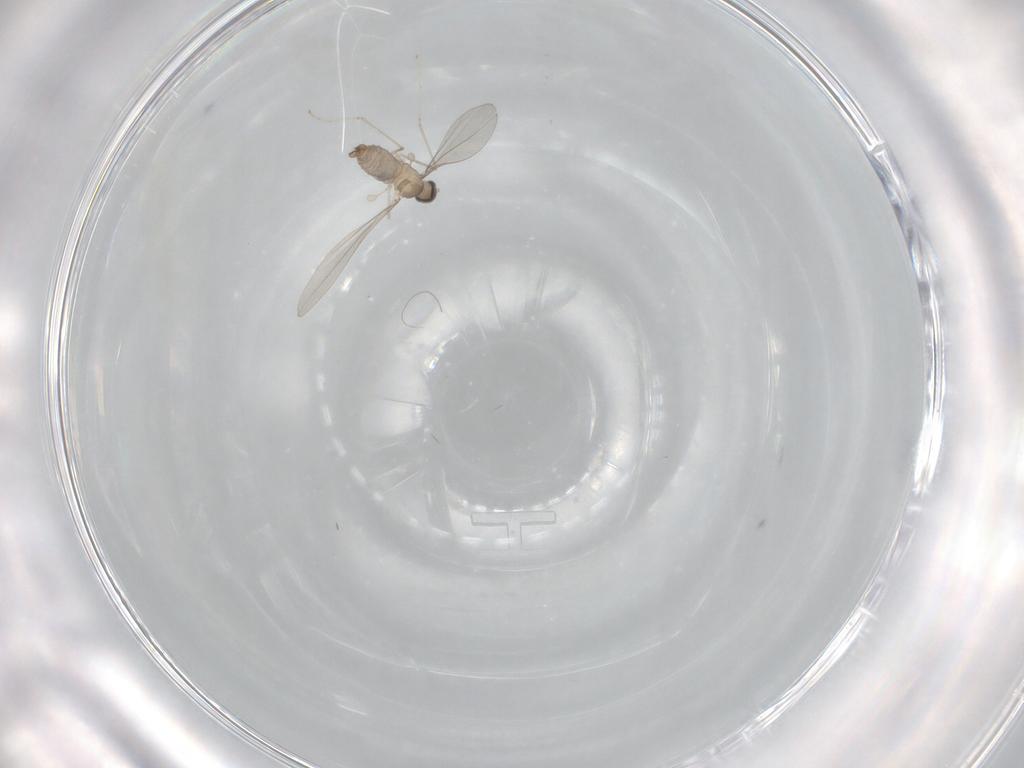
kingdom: Animalia
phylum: Arthropoda
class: Insecta
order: Diptera
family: Cecidomyiidae
